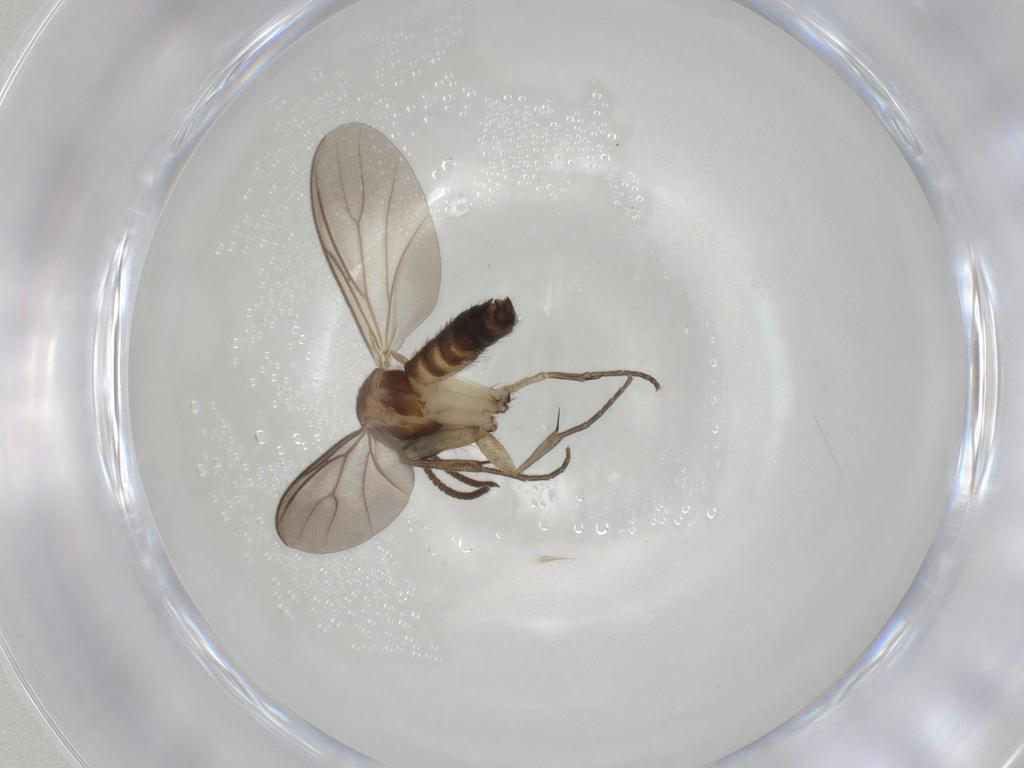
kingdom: Animalia
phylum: Arthropoda
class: Insecta
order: Diptera
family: Mycetophilidae
